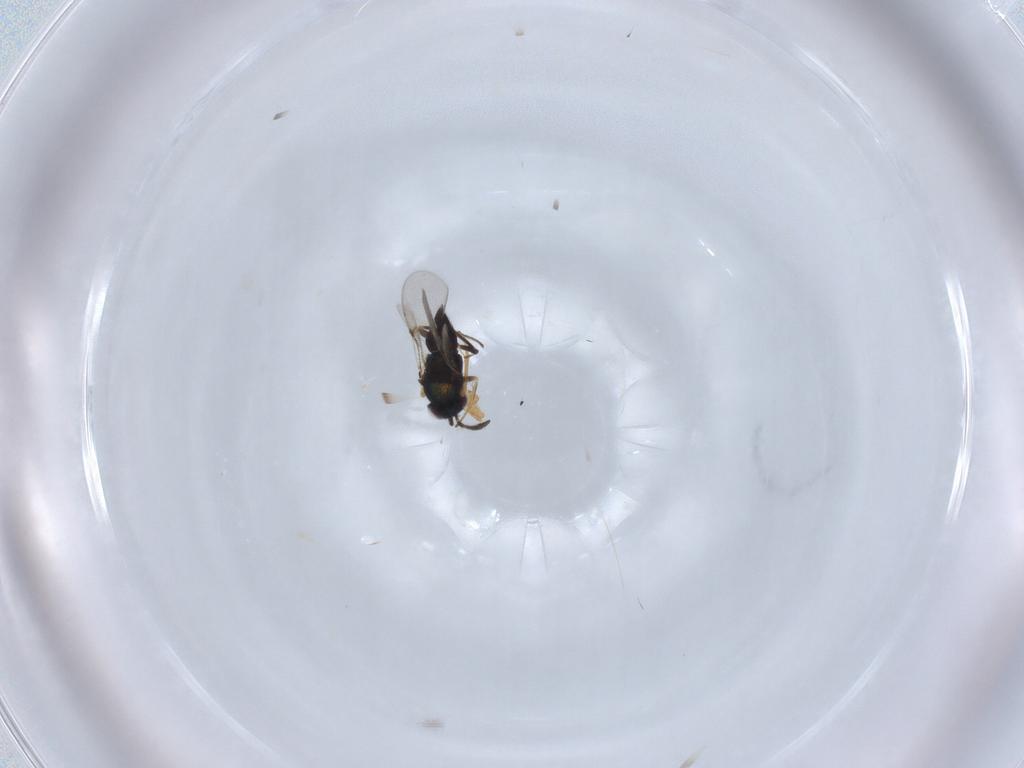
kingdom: Animalia
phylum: Arthropoda
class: Insecta
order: Hymenoptera
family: Encyrtidae
